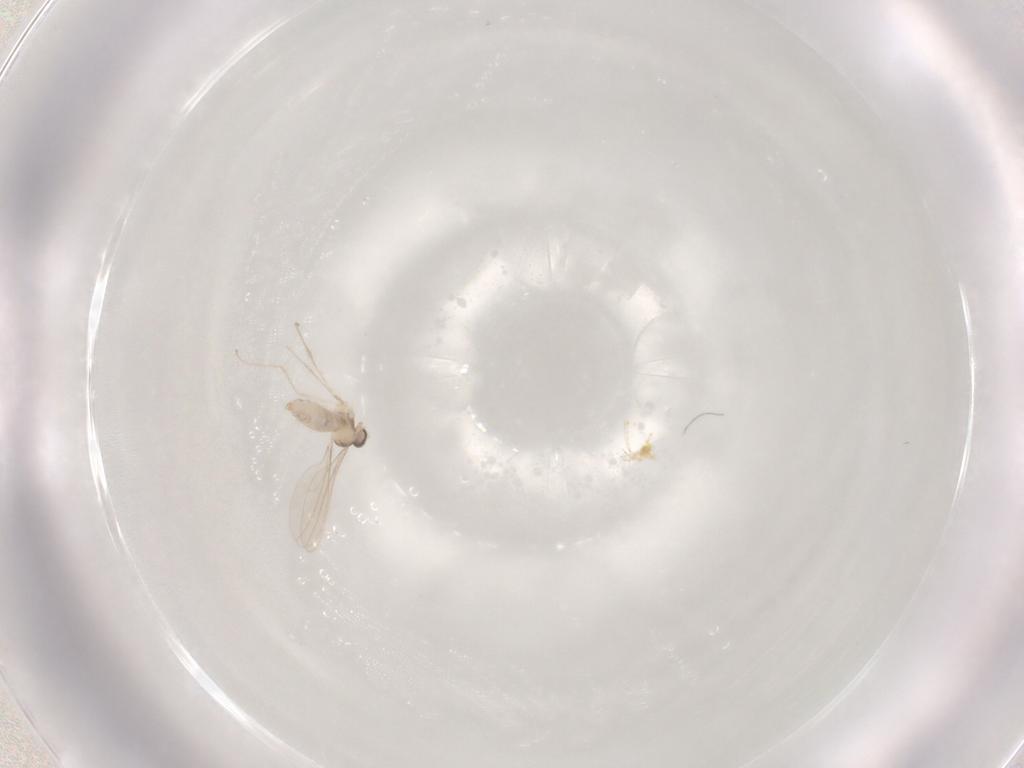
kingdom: Animalia
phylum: Arthropoda
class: Insecta
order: Diptera
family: Cecidomyiidae
